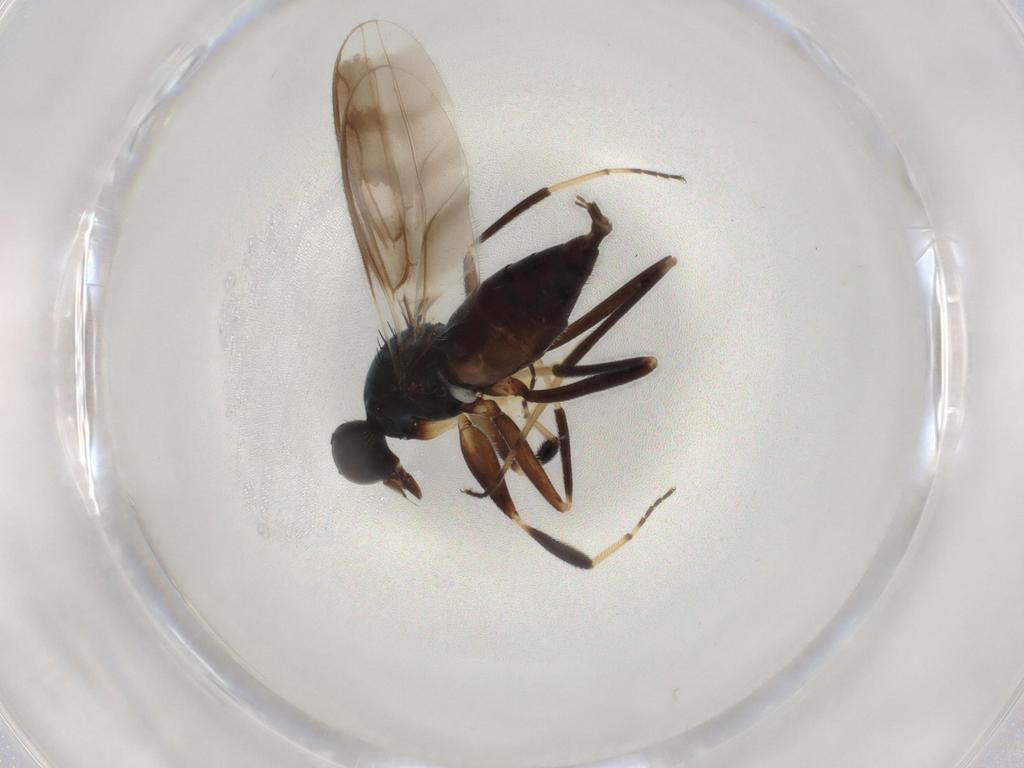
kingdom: Animalia
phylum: Arthropoda
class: Insecta
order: Diptera
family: Hybotidae
